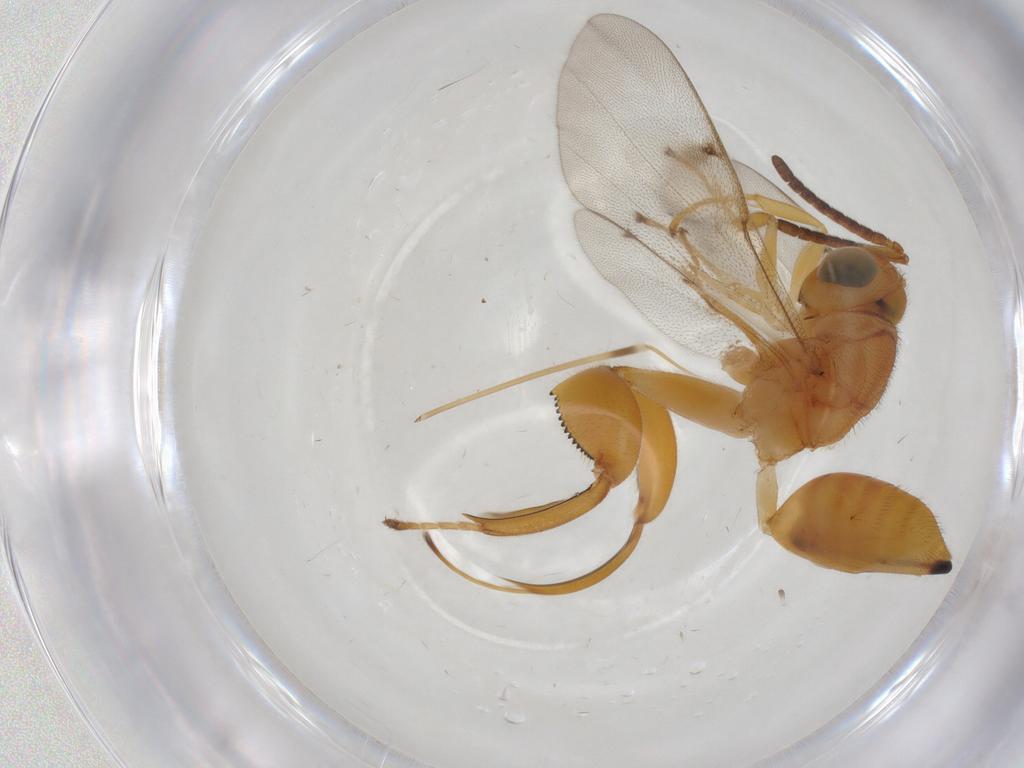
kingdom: Animalia
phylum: Arthropoda
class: Insecta
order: Hymenoptera
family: Chalcididae
